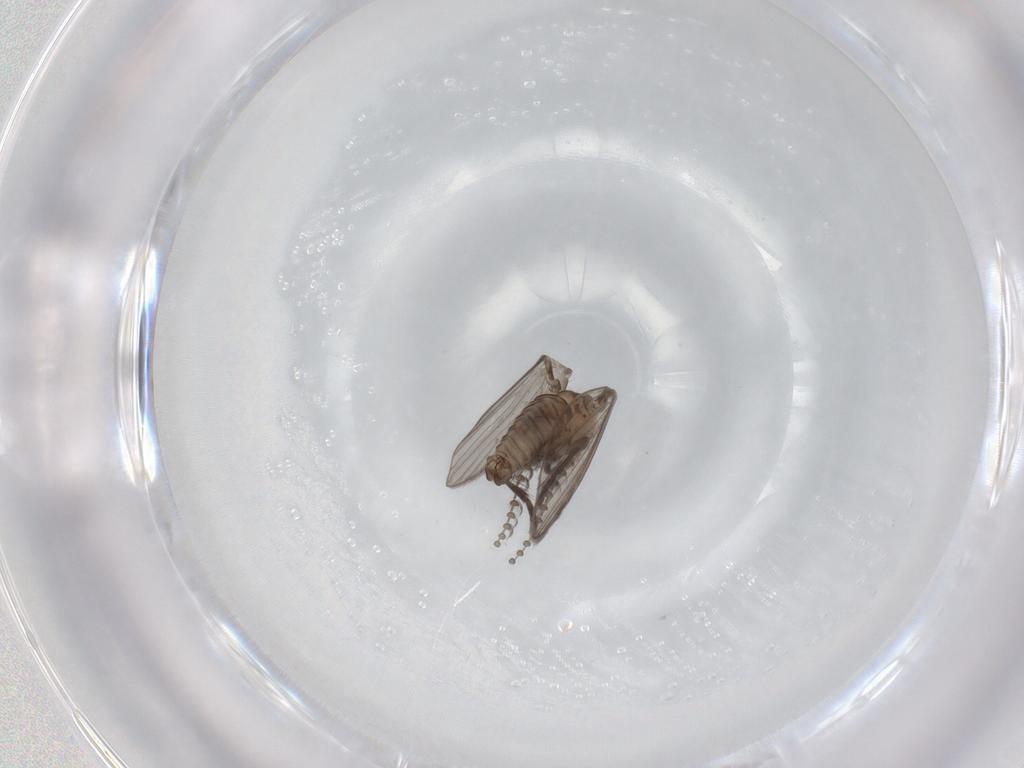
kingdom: Animalia
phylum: Arthropoda
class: Insecta
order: Diptera
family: Psychodidae
